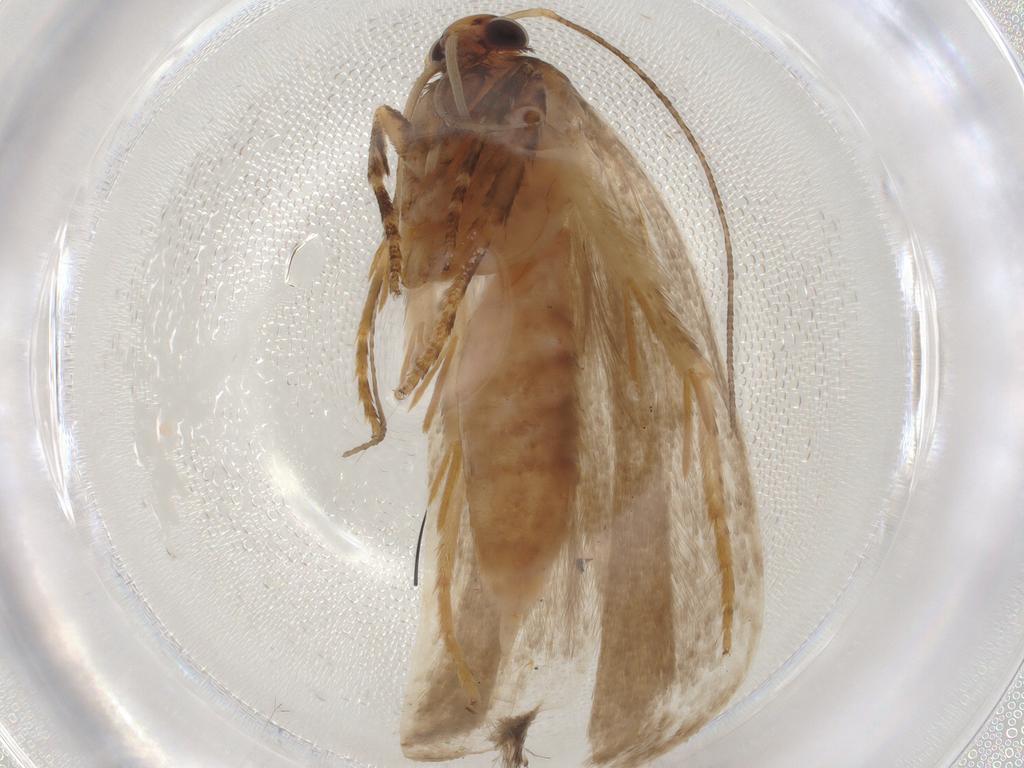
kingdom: Animalia
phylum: Arthropoda
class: Insecta
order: Lepidoptera
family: Gelechiidae
